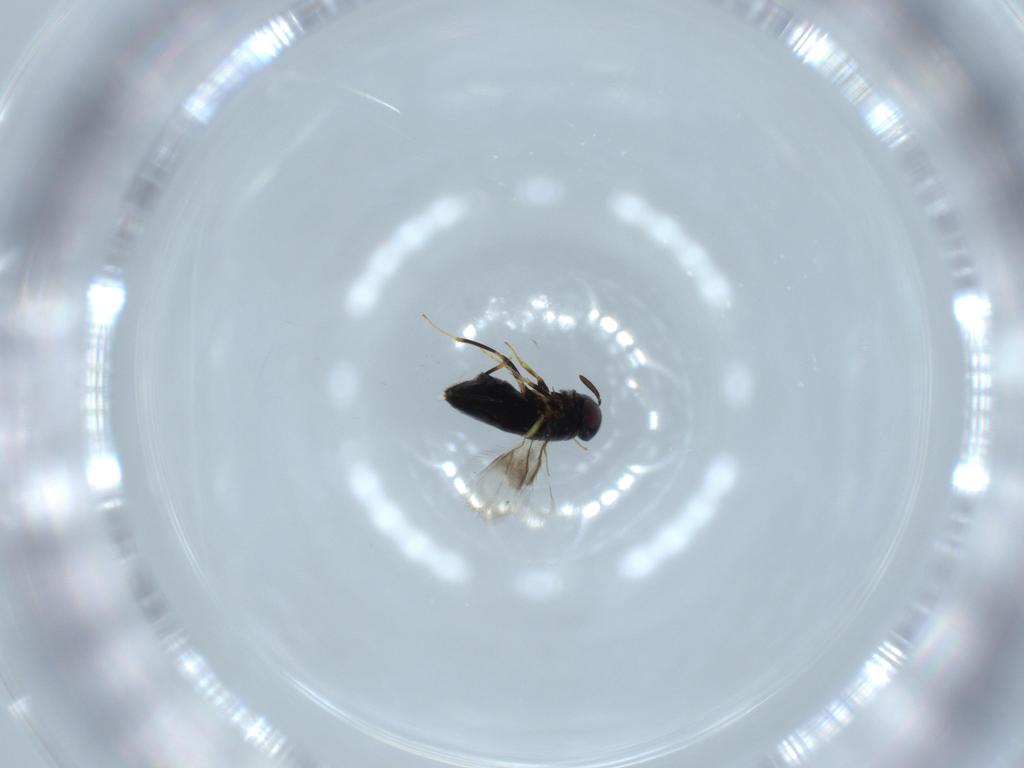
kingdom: Animalia
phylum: Arthropoda
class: Insecta
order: Hymenoptera
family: Signiphoridae
